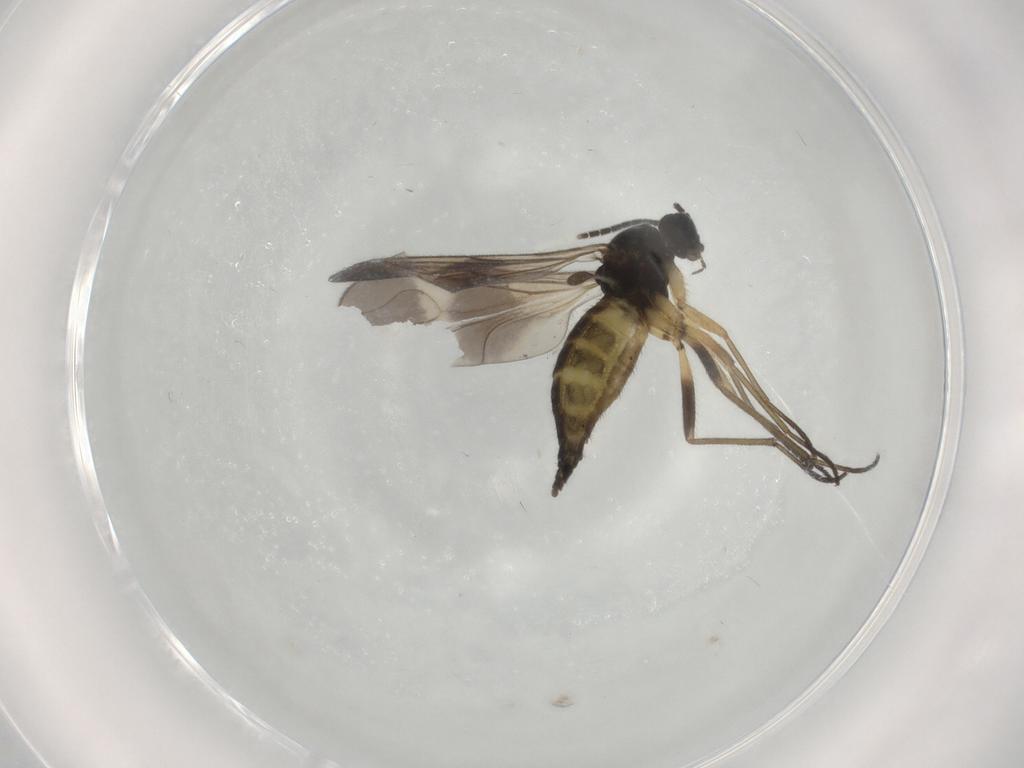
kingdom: Animalia
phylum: Arthropoda
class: Insecta
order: Diptera
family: Sciaridae
